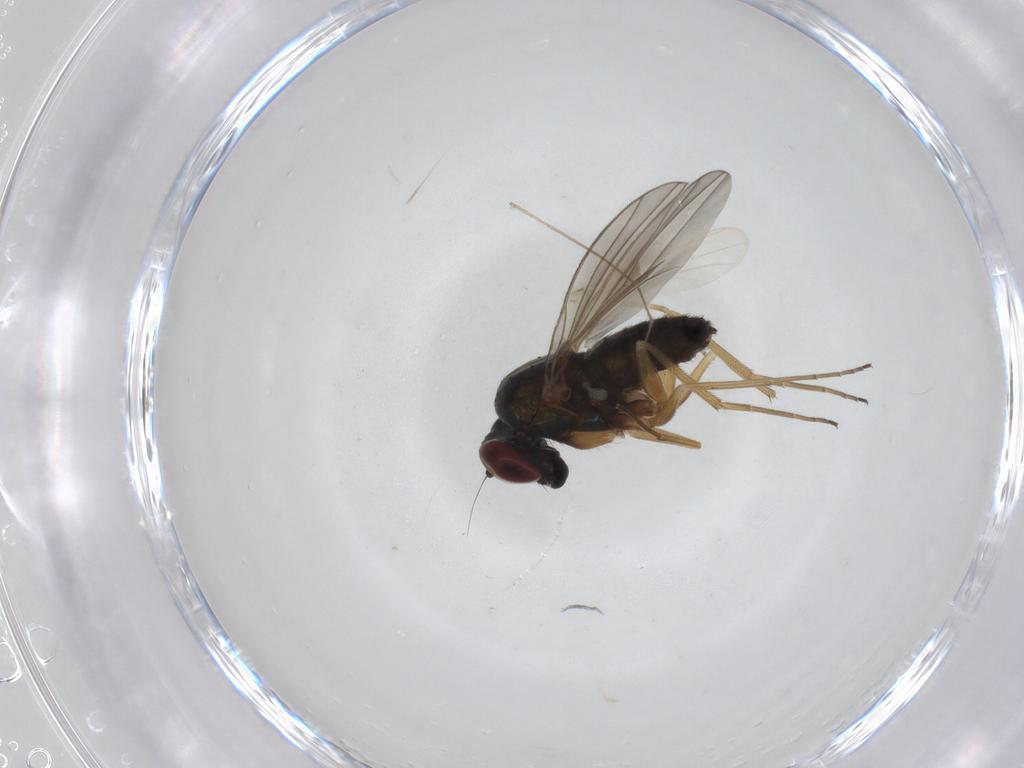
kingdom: Animalia
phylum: Arthropoda
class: Insecta
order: Diptera
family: Dolichopodidae
